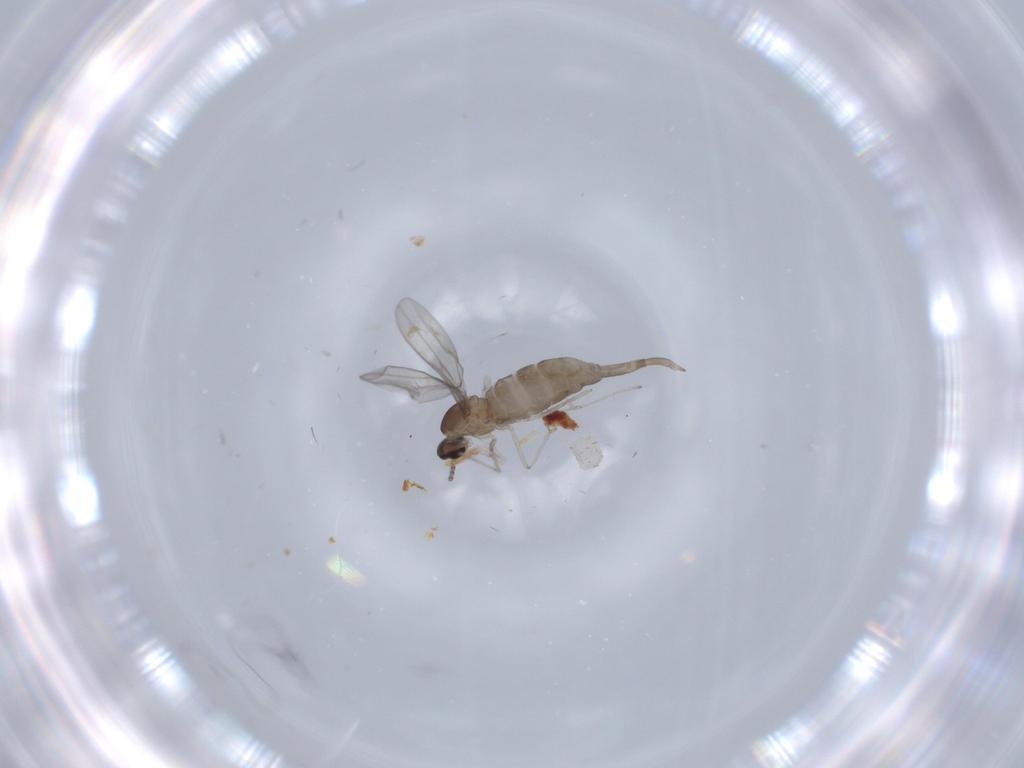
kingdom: Animalia
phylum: Arthropoda
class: Insecta
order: Diptera
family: Cecidomyiidae
